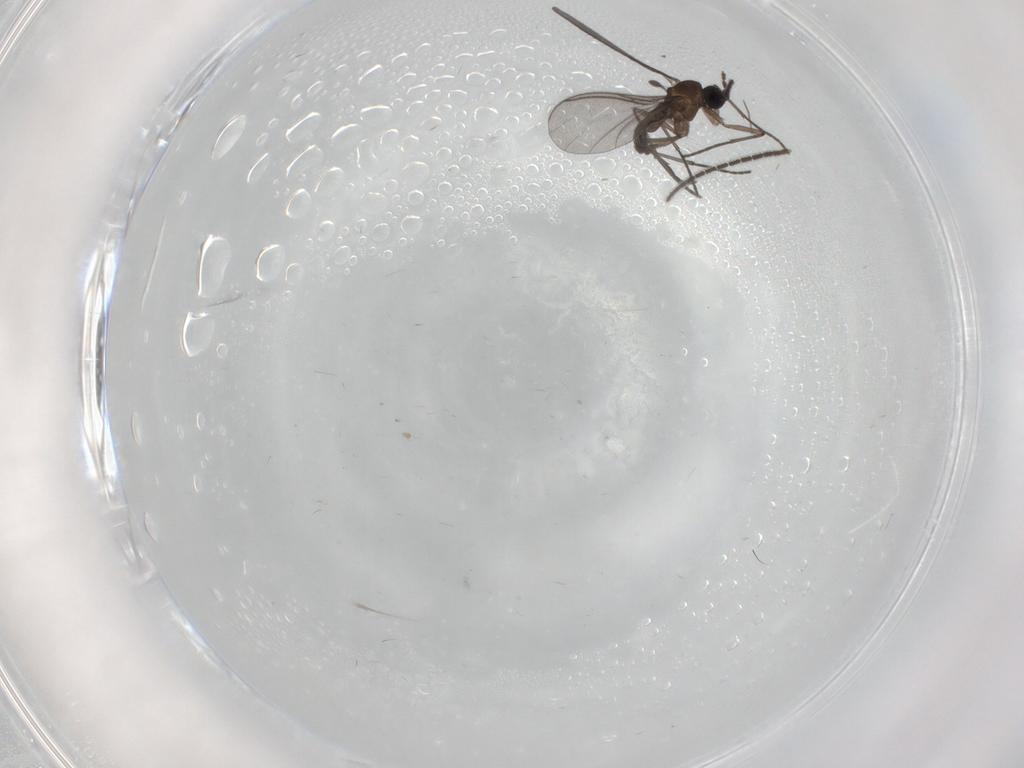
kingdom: Animalia
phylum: Arthropoda
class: Insecta
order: Diptera
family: Sciaridae
